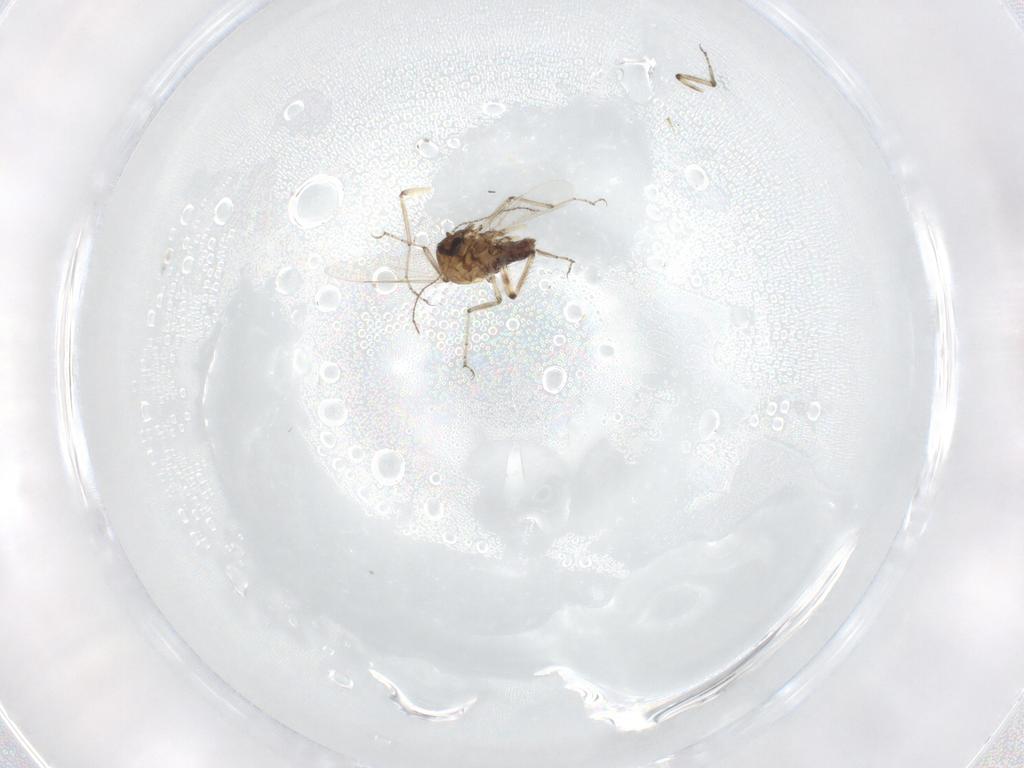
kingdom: Animalia
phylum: Arthropoda
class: Insecta
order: Diptera
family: Ceratopogonidae
